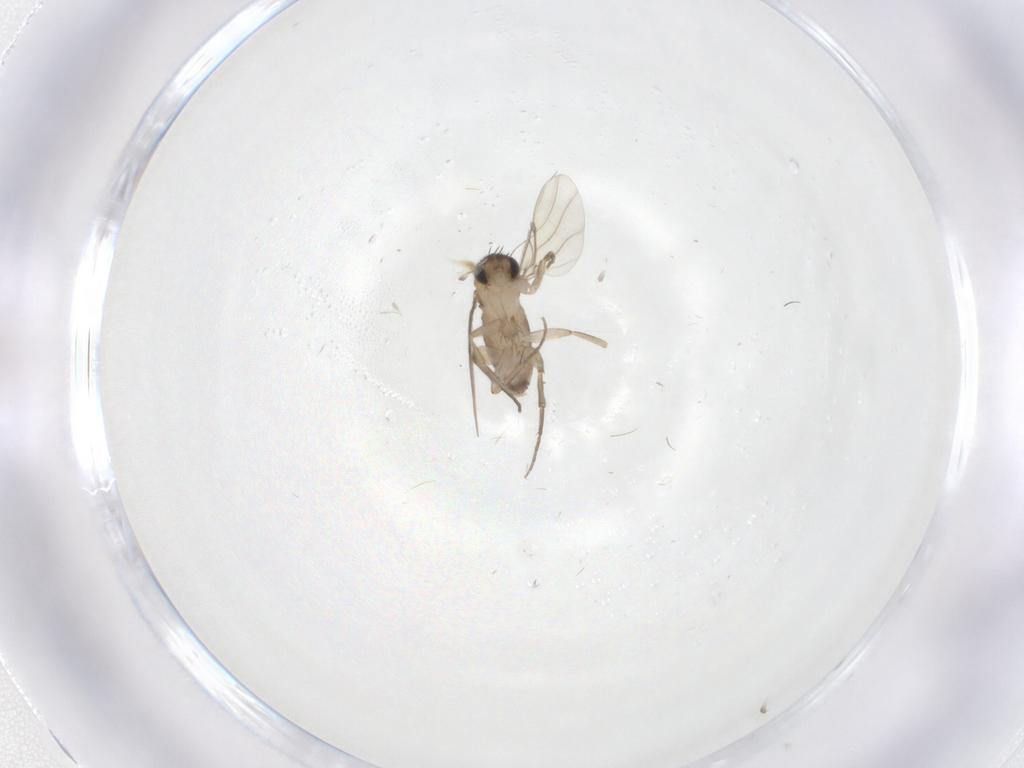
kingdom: Animalia
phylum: Arthropoda
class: Insecta
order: Diptera
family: Phoridae
